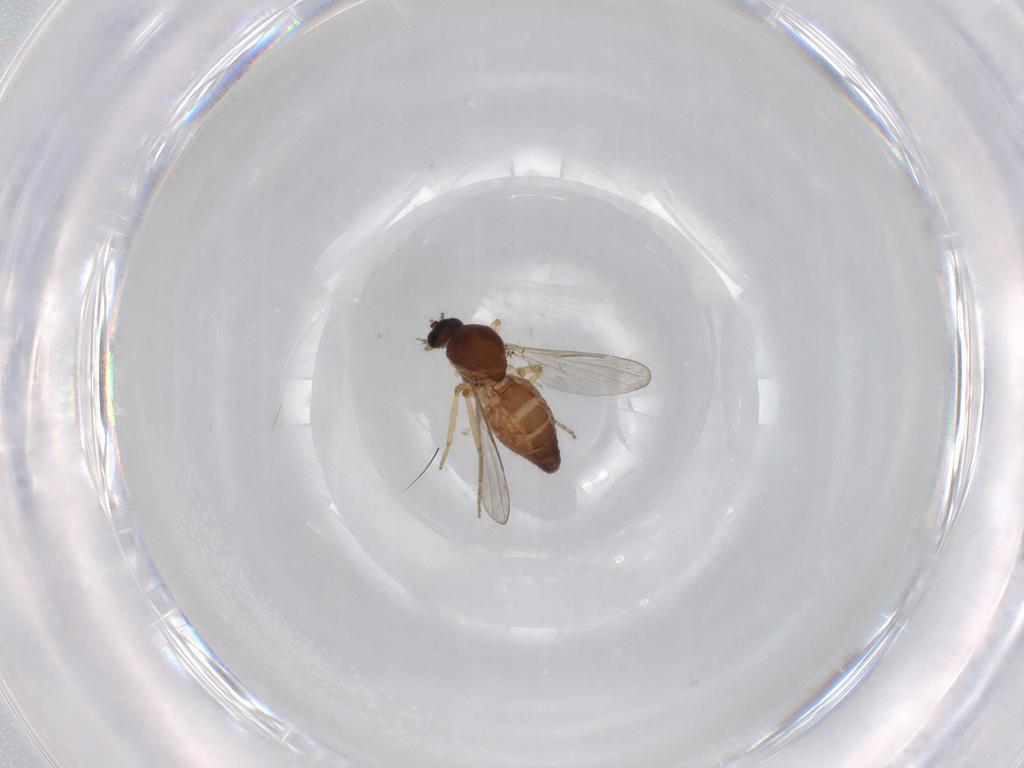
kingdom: Animalia
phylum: Arthropoda
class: Insecta
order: Diptera
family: Ceratopogonidae
